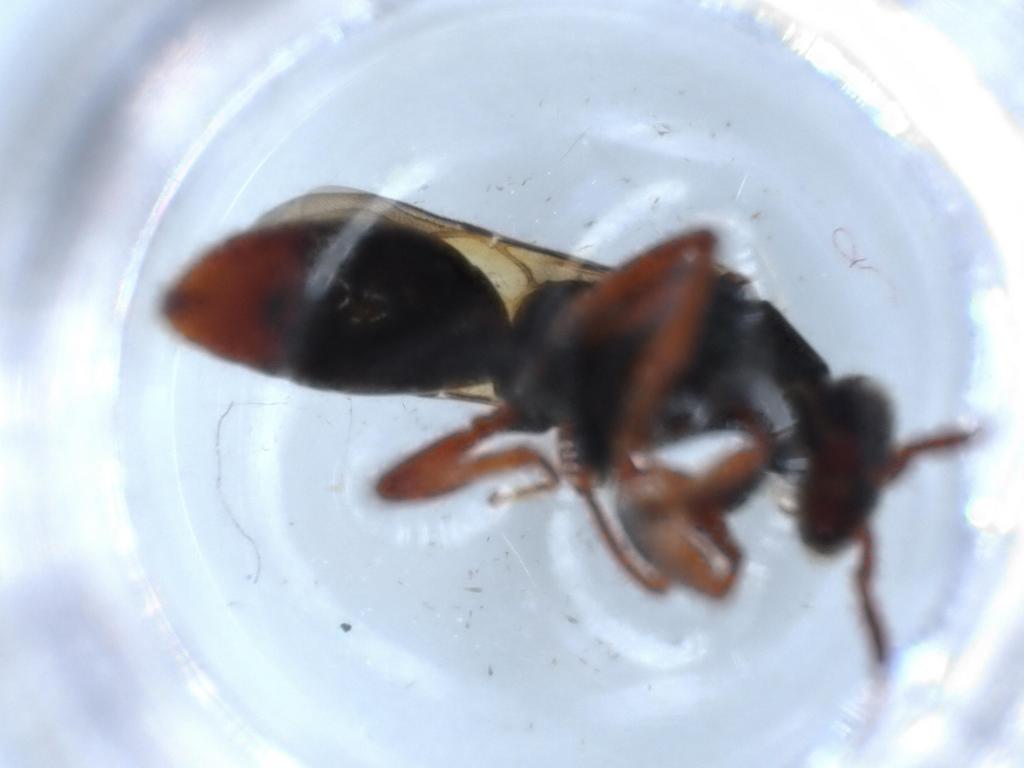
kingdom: Animalia
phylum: Arthropoda
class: Insecta
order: Hymenoptera
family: Bethylidae
